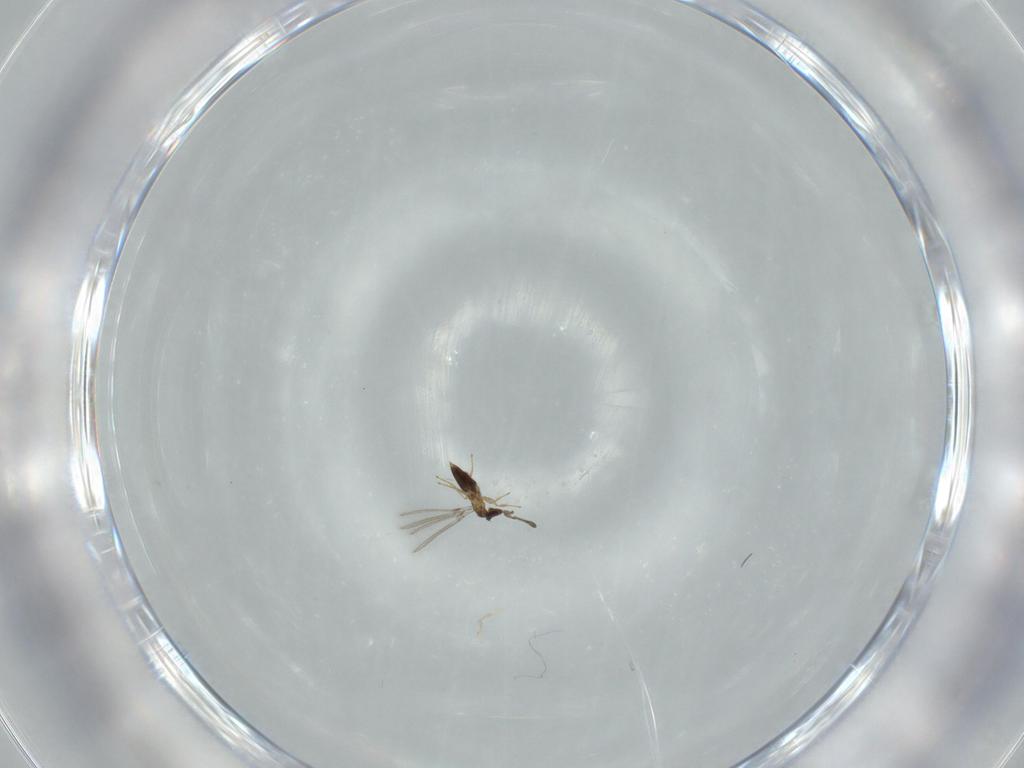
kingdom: Animalia
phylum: Arthropoda
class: Insecta
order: Hymenoptera
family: Mymaridae
